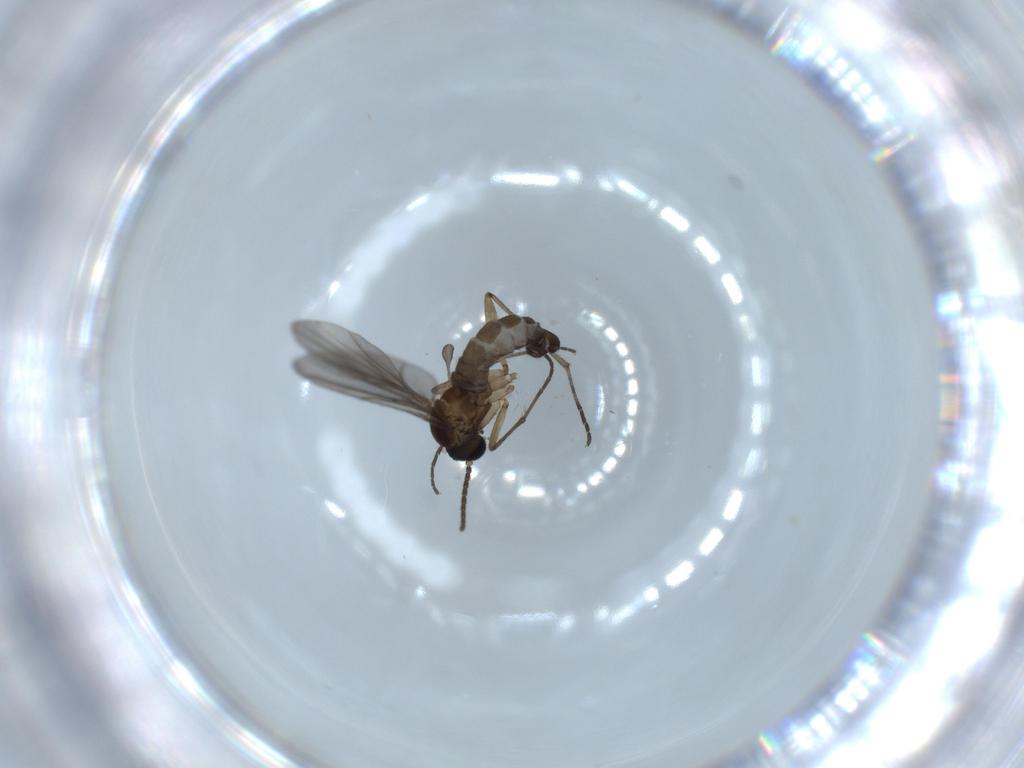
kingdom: Animalia
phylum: Arthropoda
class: Insecta
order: Diptera
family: Sciaridae
